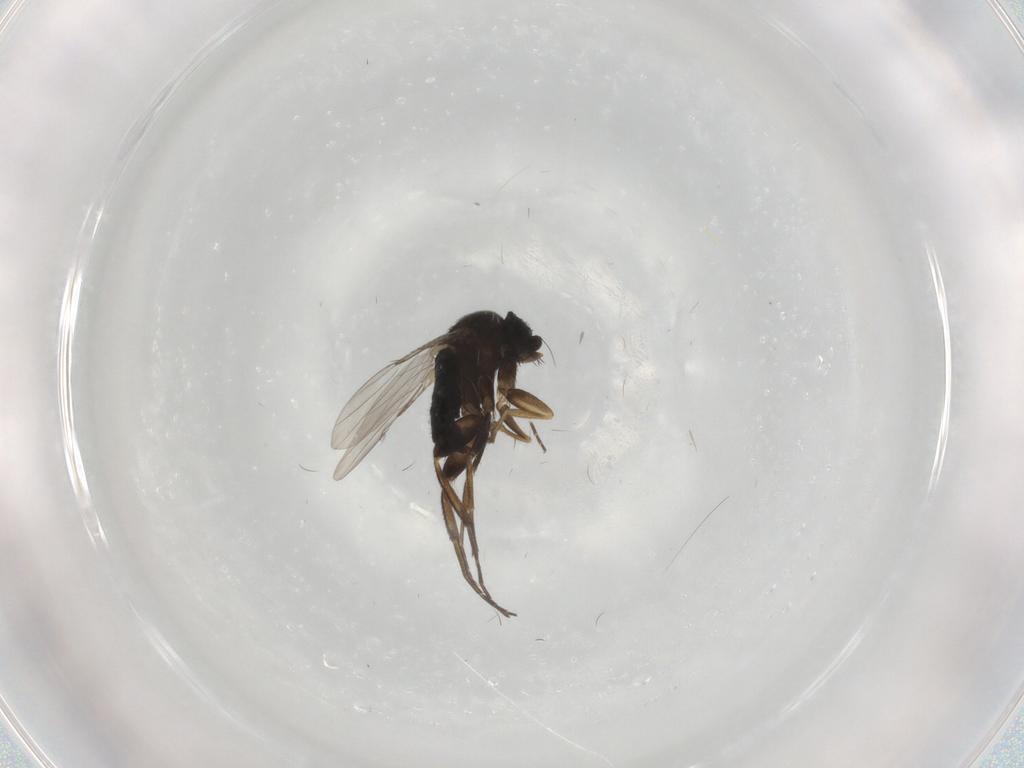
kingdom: Animalia
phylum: Arthropoda
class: Insecta
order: Diptera
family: Phoridae
